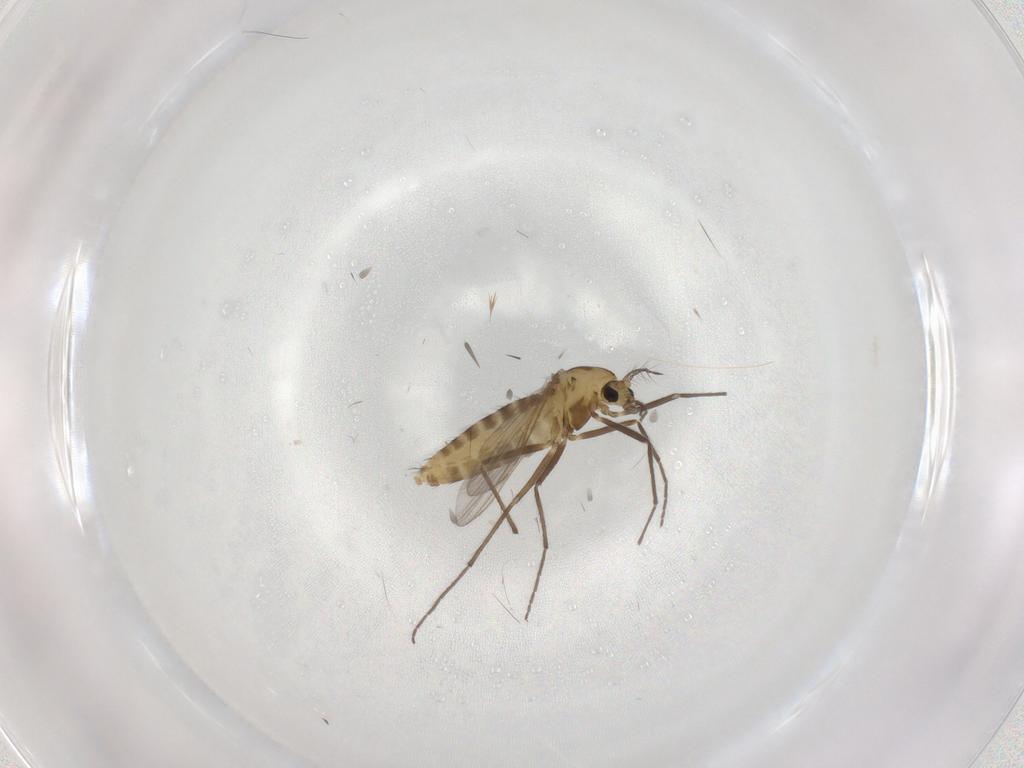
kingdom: Animalia
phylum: Arthropoda
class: Insecta
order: Diptera
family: Chironomidae
